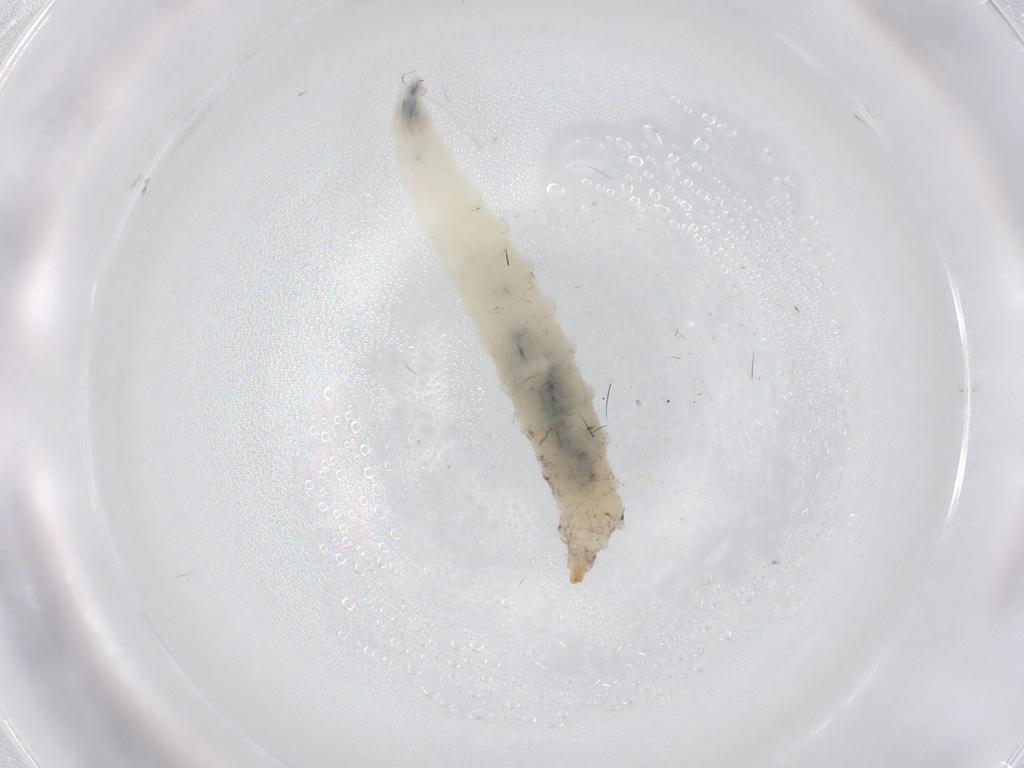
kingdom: Animalia
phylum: Arthropoda
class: Insecta
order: Diptera
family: Drosophilidae
